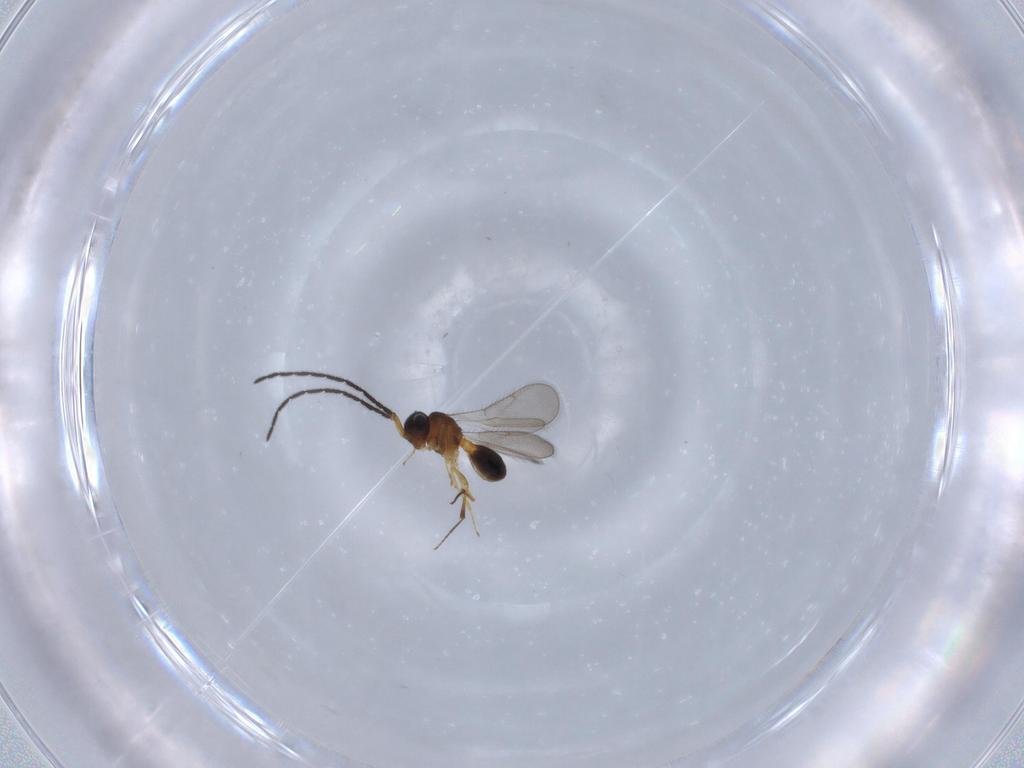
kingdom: Animalia
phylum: Arthropoda
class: Insecta
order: Hymenoptera
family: Scelionidae
